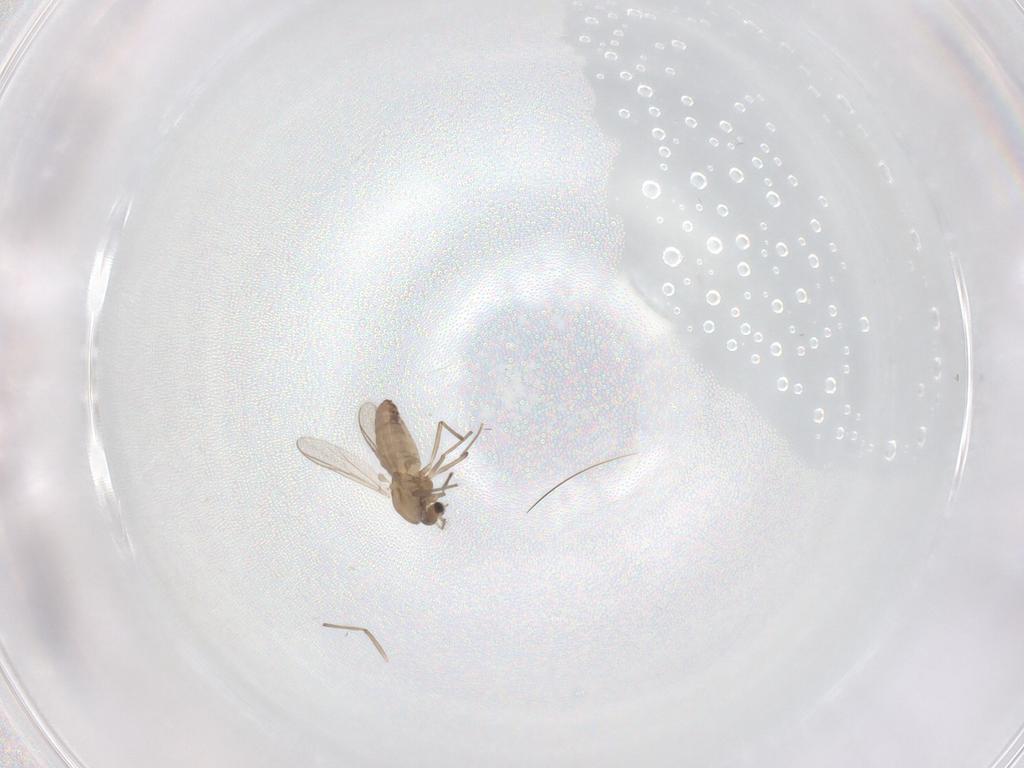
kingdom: Animalia
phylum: Arthropoda
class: Insecta
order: Diptera
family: Chironomidae
